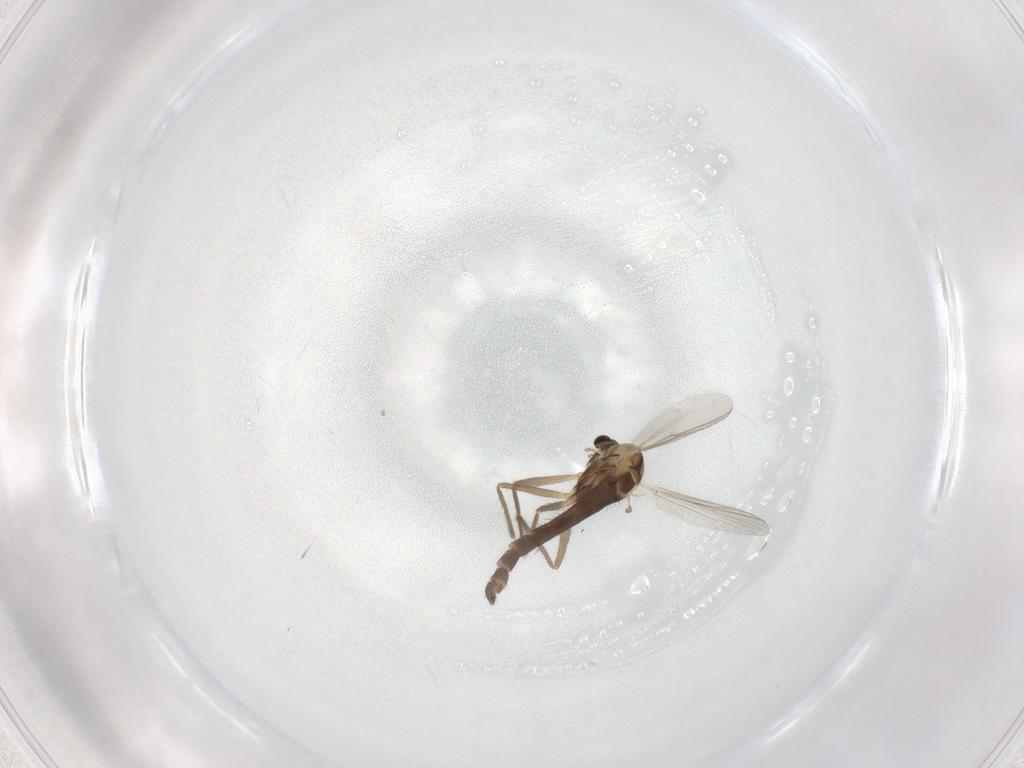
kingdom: Animalia
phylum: Arthropoda
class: Insecta
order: Diptera
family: Chironomidae
